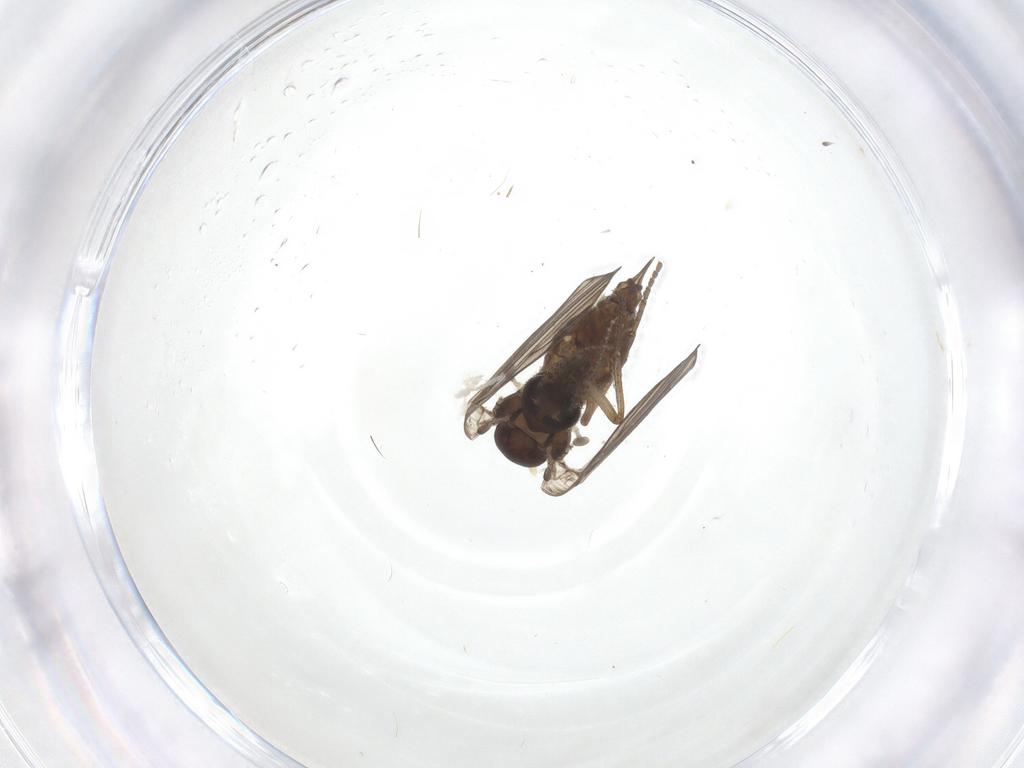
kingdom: Animalia
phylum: Arthropoda
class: Insecta
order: Diptera
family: Psychodidae
